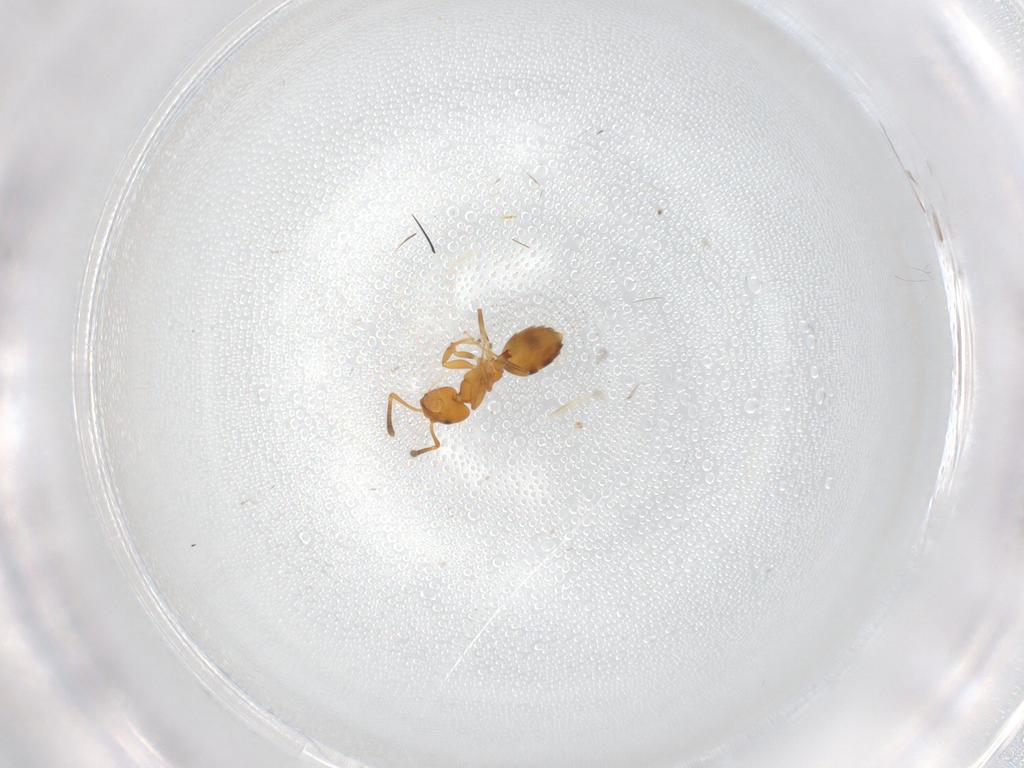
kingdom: Animalia
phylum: Arthropoda
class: Insecta
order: Hymenoptera
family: Formicidae
